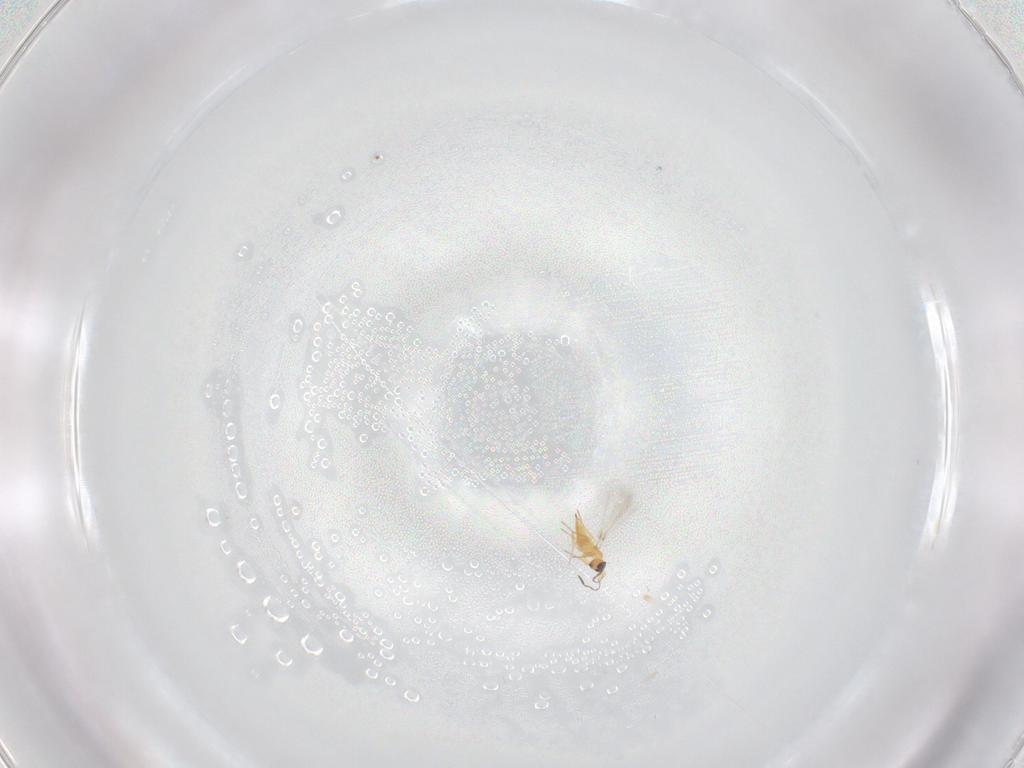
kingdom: Animalia
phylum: Arthropoda
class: Insecta
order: Hymenoptera
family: Mymaridae
